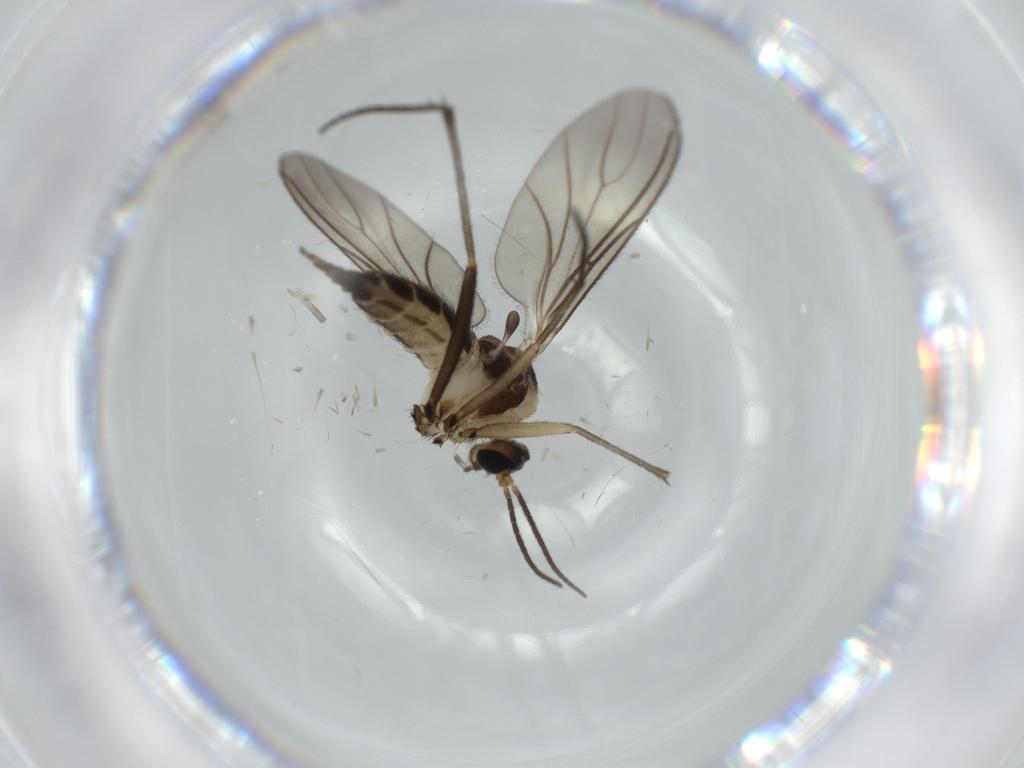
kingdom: Animalia
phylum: Arthropoda
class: Insecta
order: Diptera
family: Sciaridae
